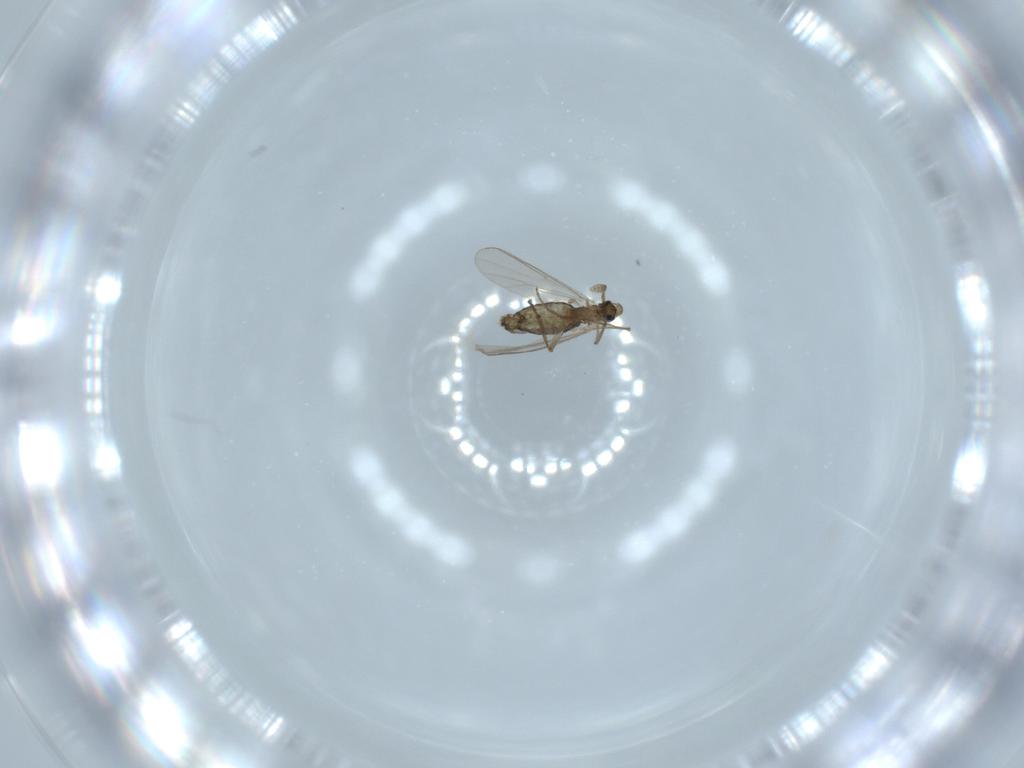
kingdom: Animalia
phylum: Arthropoda
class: Insecta
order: Diptera
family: Chironomidae
